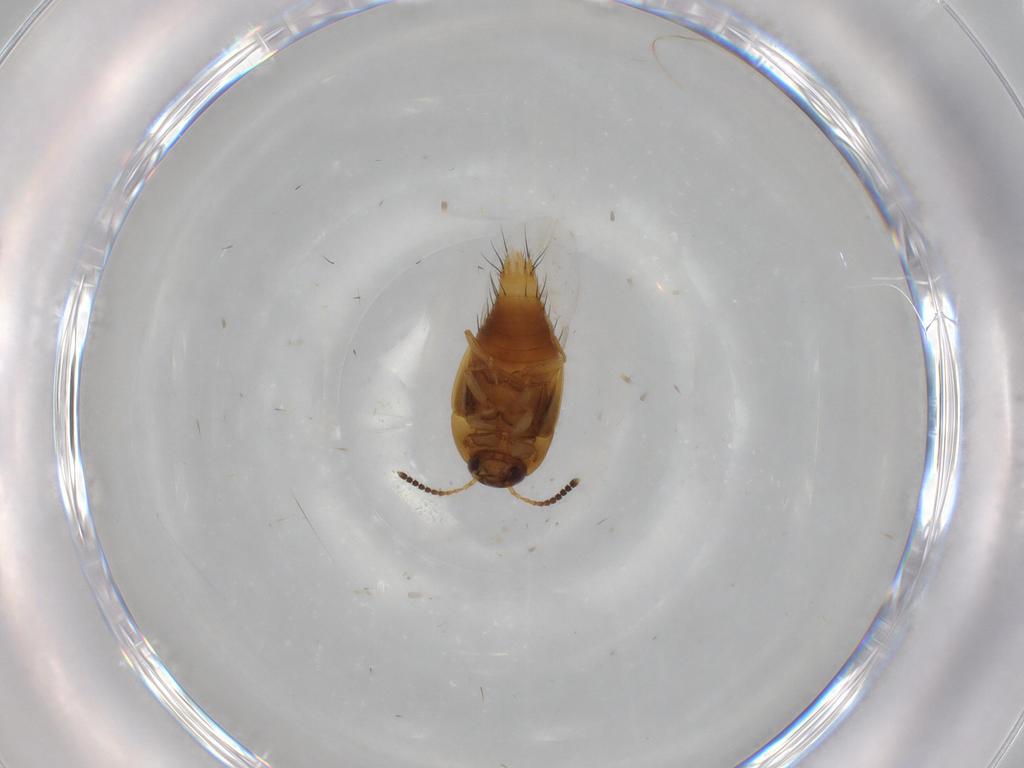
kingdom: Animalia
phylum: Arthropoda
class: Insecta
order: Coleoptera
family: Staphylinidae
